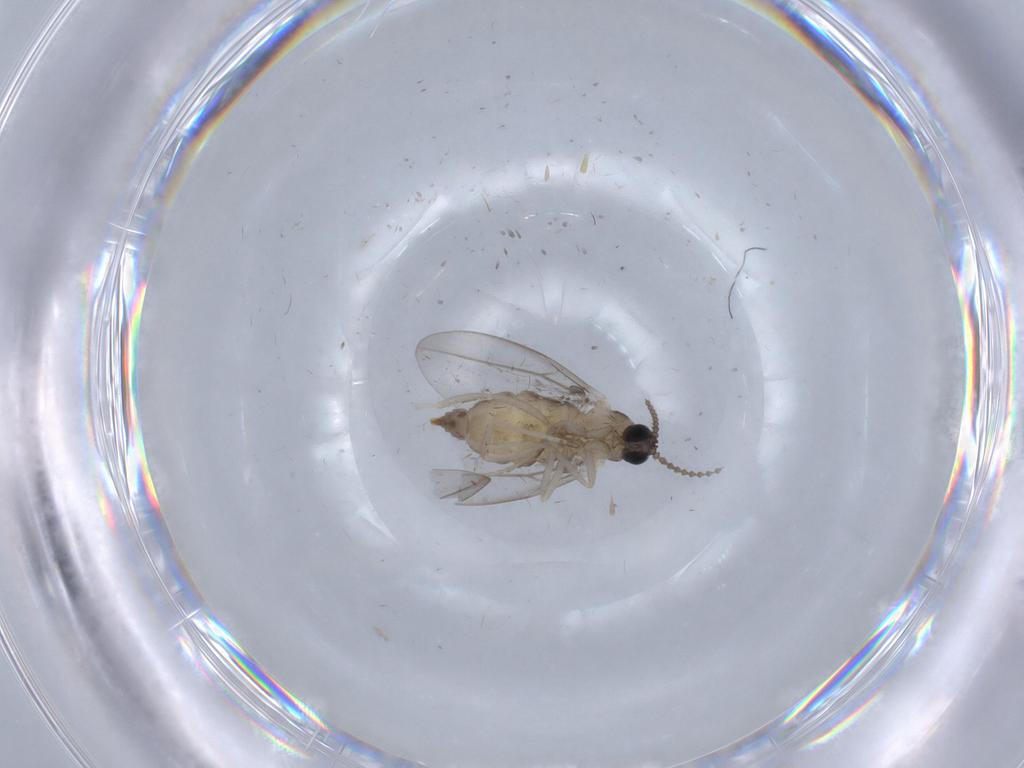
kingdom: Animalia
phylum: Arthropoda
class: Insecta
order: Diptera
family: Cecidomyiidae
